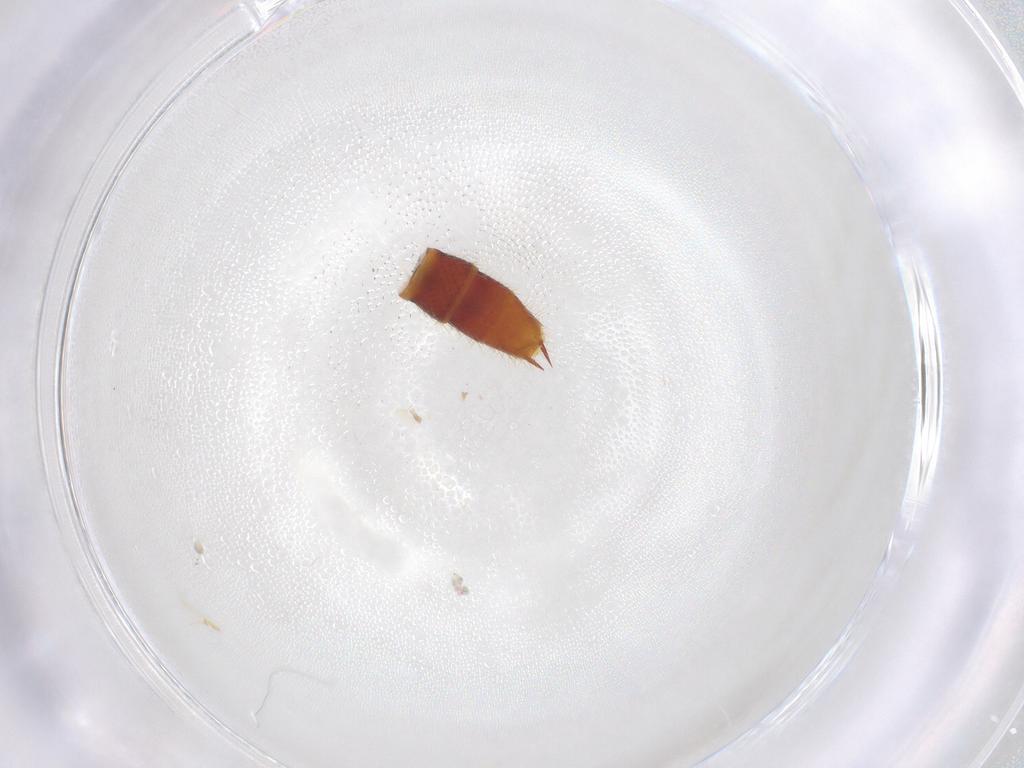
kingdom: Animalia
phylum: Arthropoda
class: Insecta
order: Coleoptera
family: Staphylinidae
